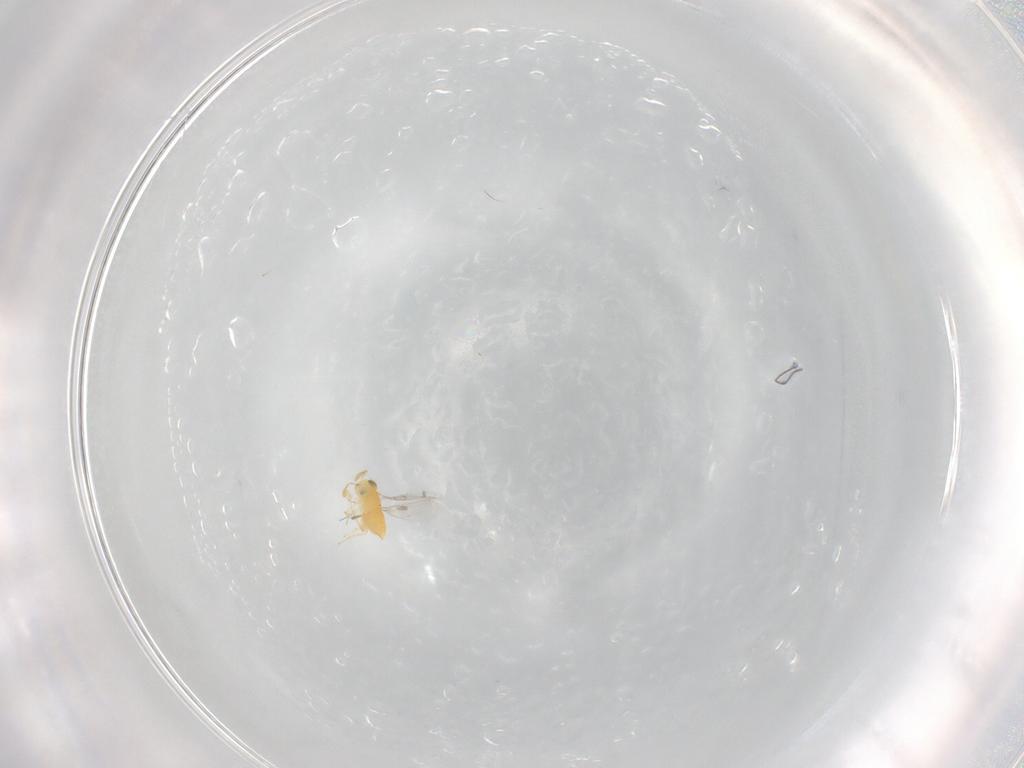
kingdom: Animalia
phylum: Arthropoda
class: Insecta
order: Hymenoptera
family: Aphelinidae
